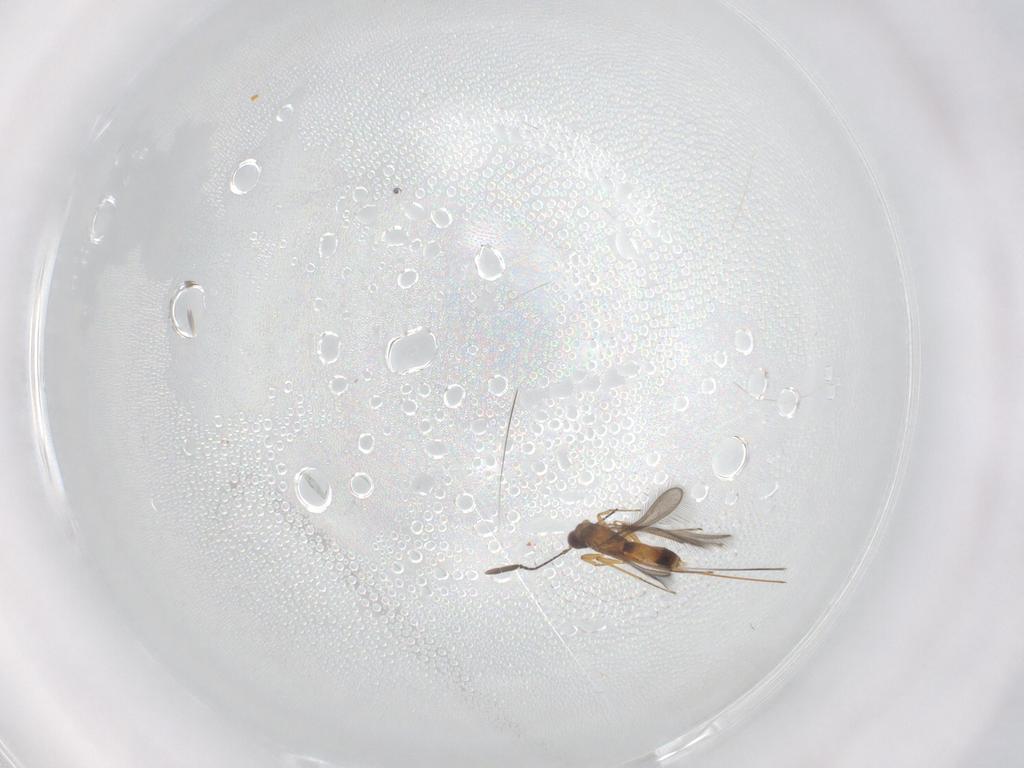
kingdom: Animalia
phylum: Arthropoda
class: Insecta
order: Hymenoptera
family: Mymaridae
